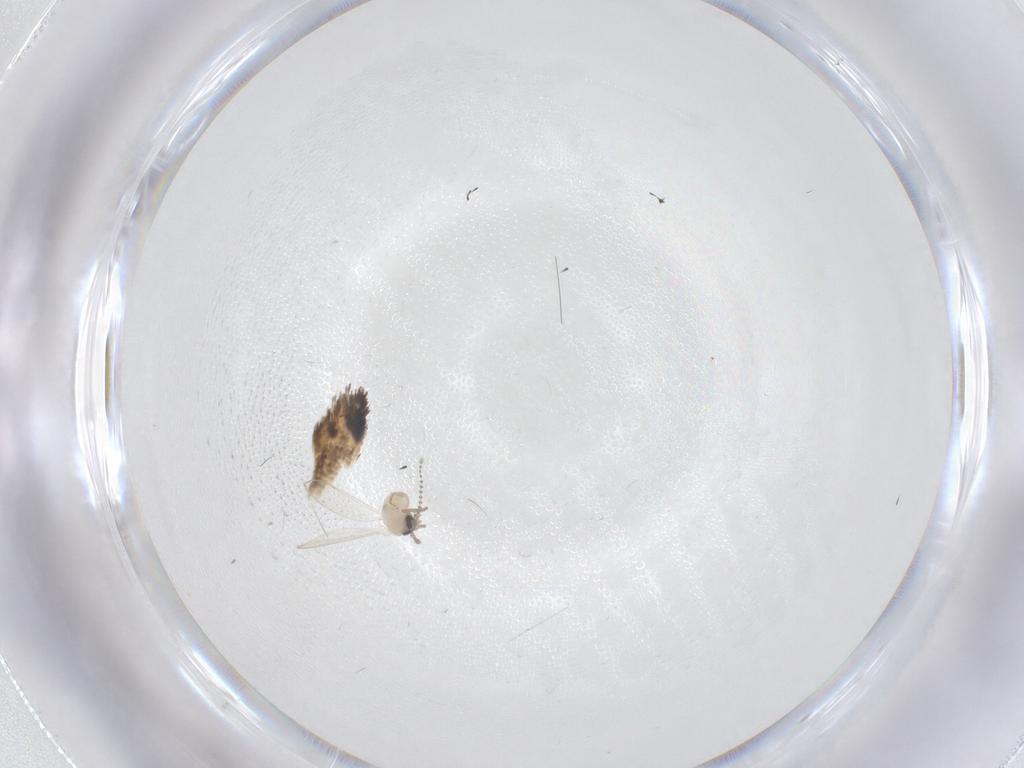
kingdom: Animalia
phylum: Arthropoda
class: Insecta
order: Diptera
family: Psychodidae
